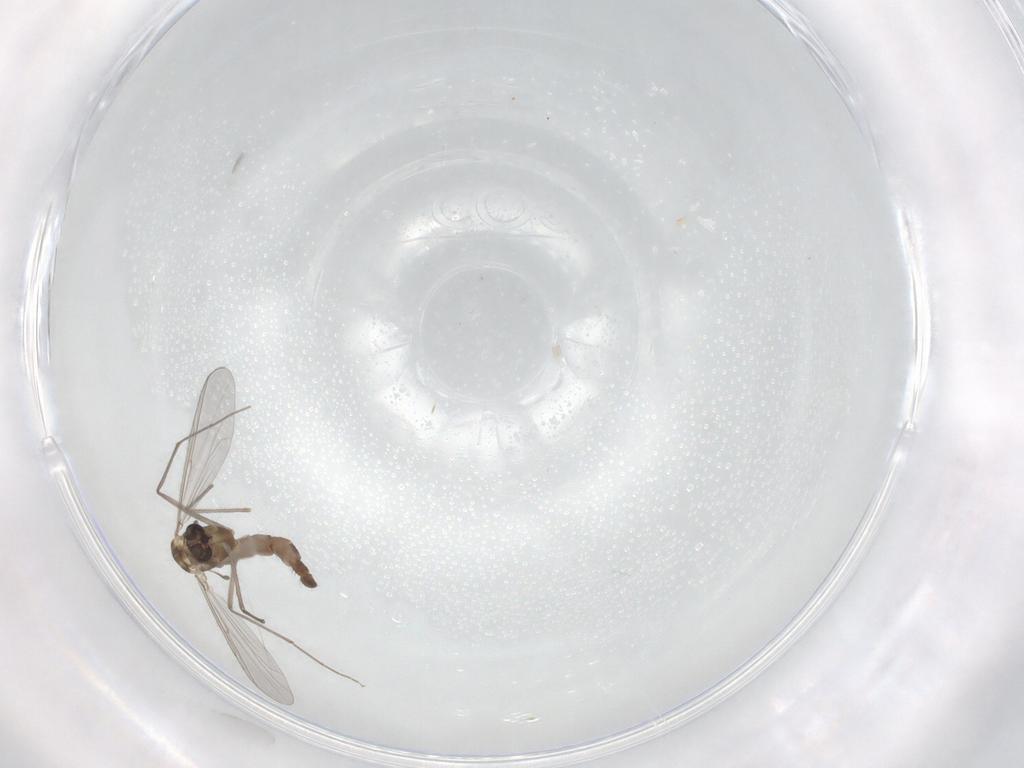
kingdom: Animalia
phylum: Arthropoda
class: Insecta
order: Diptera
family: Chironomidae
